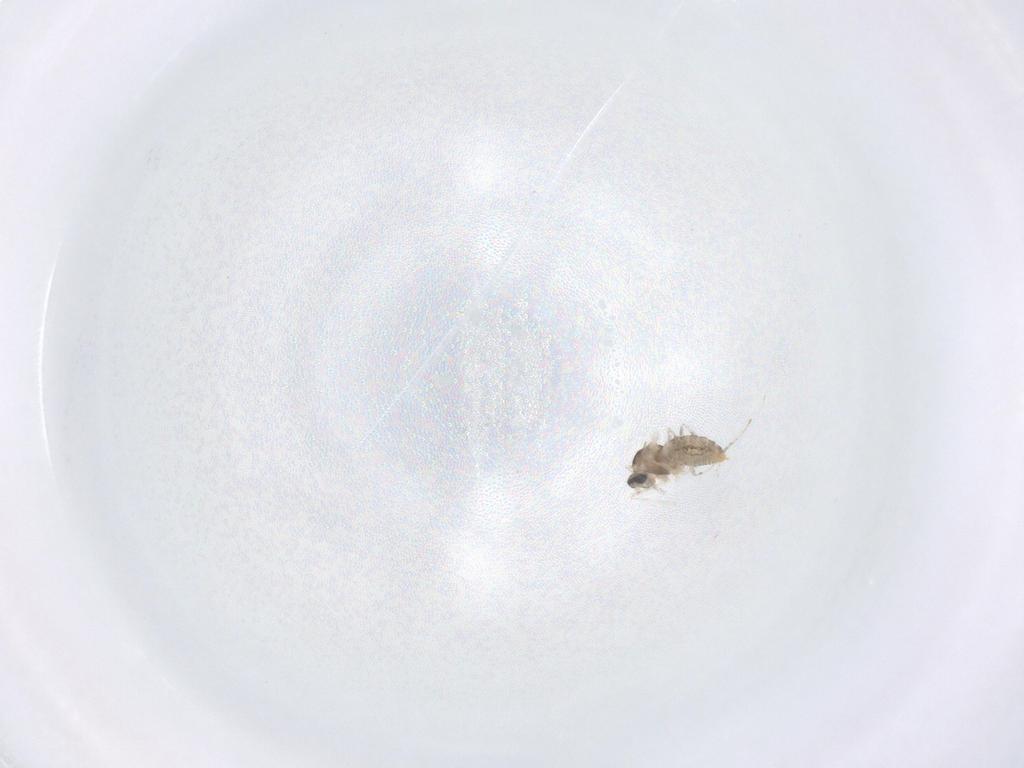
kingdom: Animalia
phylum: Arthropoda
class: Insecta
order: Diptera
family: Cecidomyiidae
